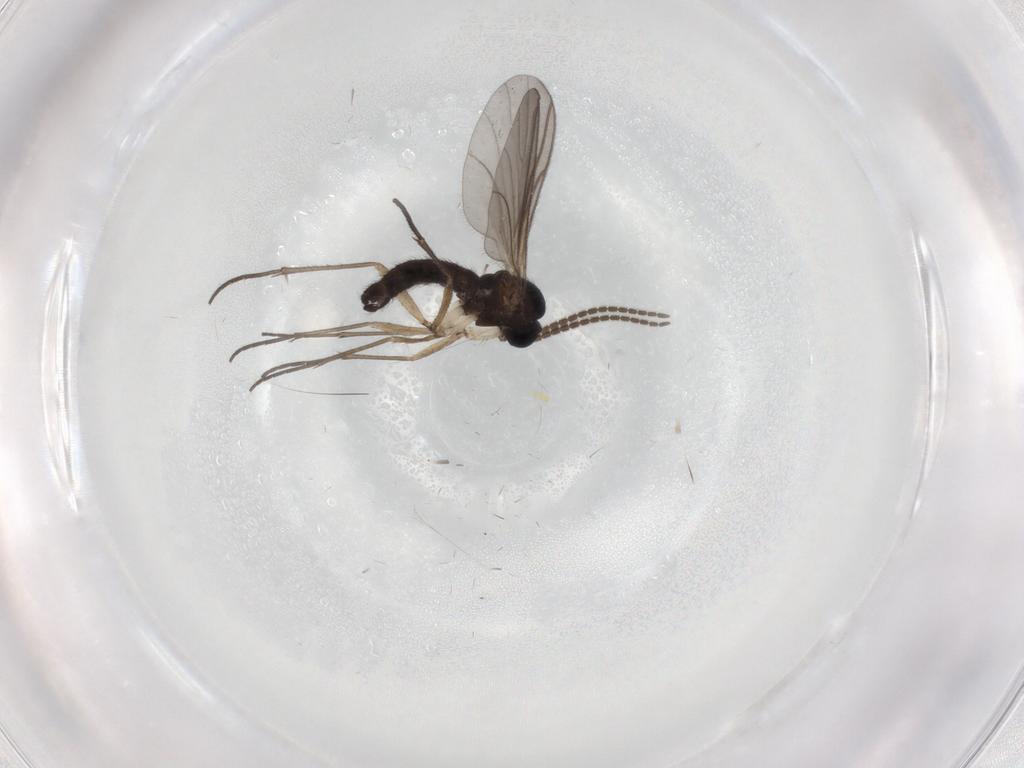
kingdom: Animalia
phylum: Arthropoda
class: Insecta
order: Diptera
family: Sciaridae
